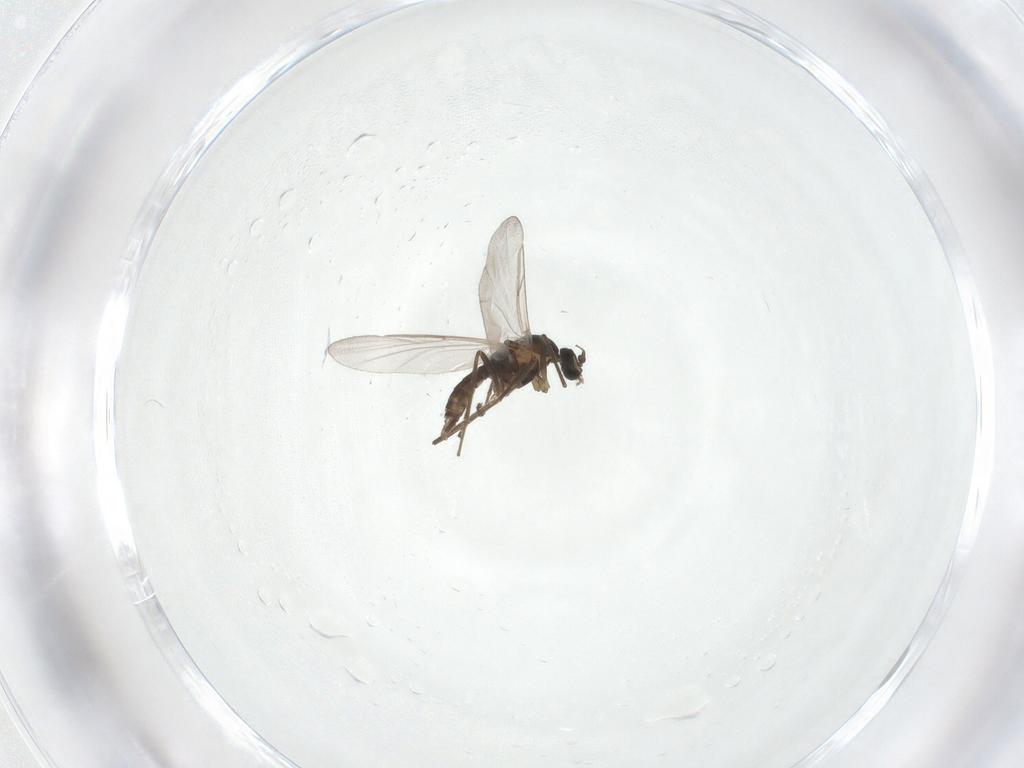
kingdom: Animalia
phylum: Arthropoda
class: Insecta
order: Diptera
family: Cecidomyiidae
